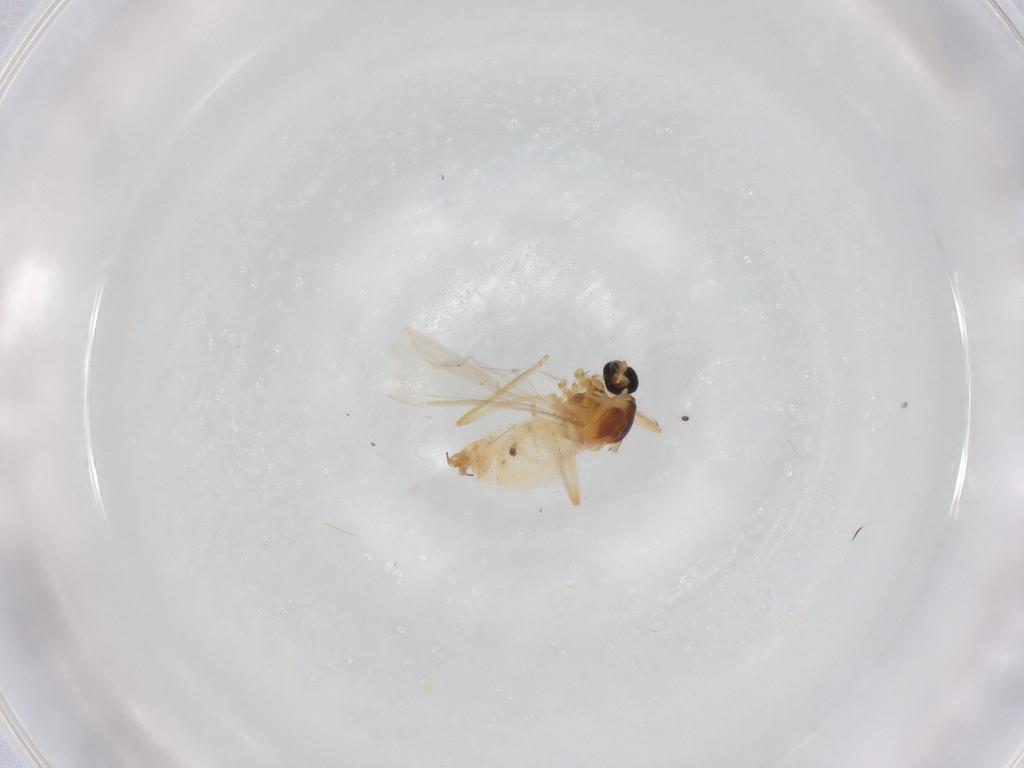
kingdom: Animalia
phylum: Arthropoda
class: Insecta
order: Diptera
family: Cecidomyiidae
